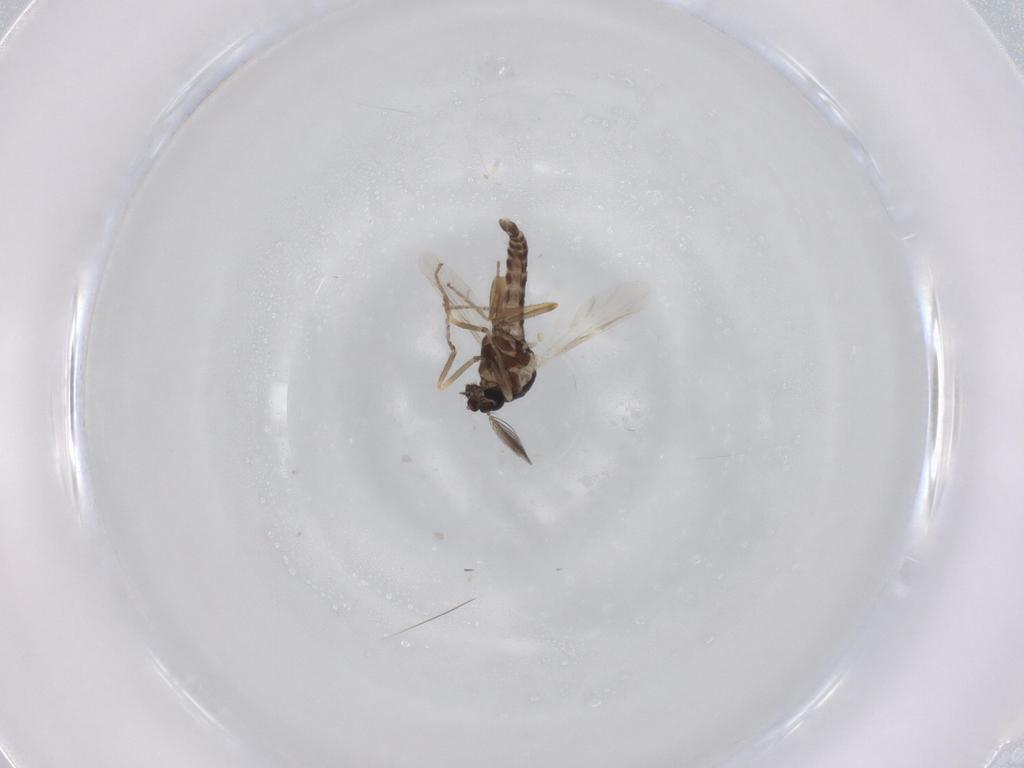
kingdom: Animalia
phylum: Arthropoda
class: Insecta
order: Diptera
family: Ceratopogonidae
